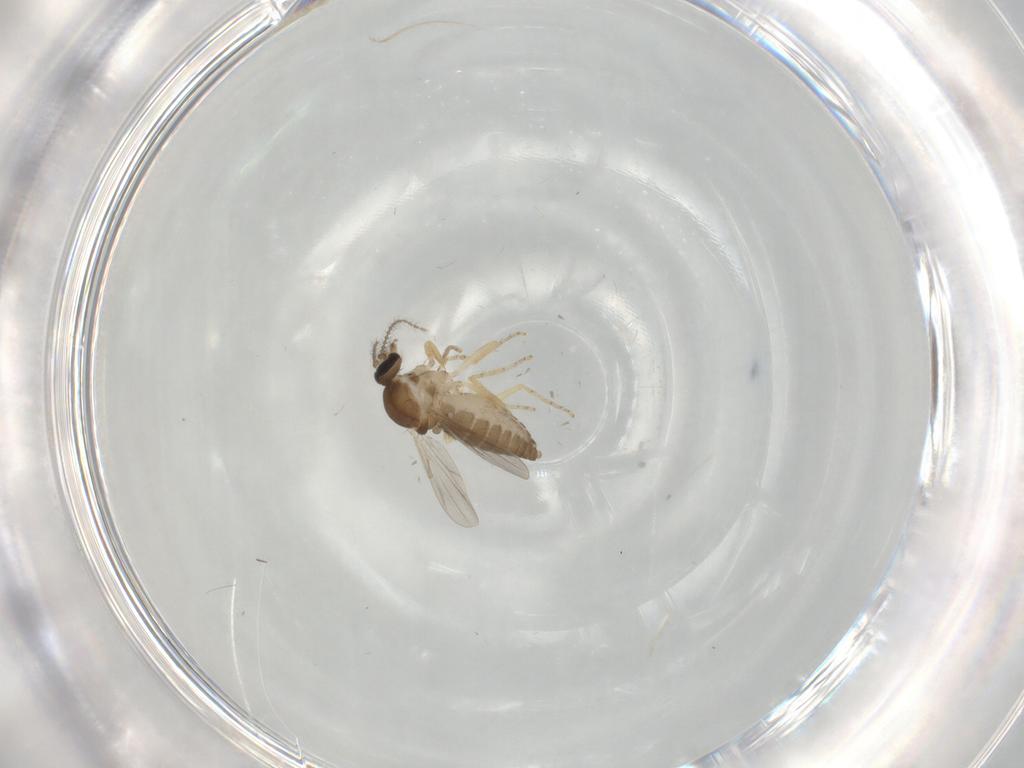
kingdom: Animalia
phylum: Arthropoda
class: Insecta
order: Diptera
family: Ceratopogonidae
